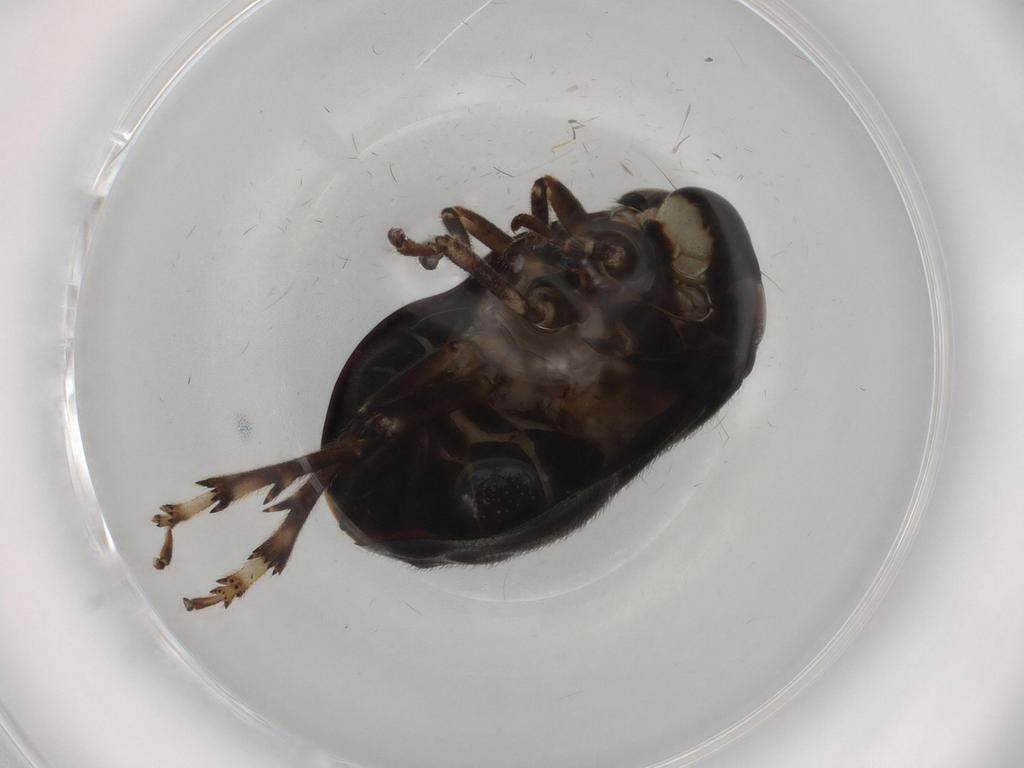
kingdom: Animalia
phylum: Arthropoda
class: Insecta
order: Hemiptera
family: Clastopteridae
